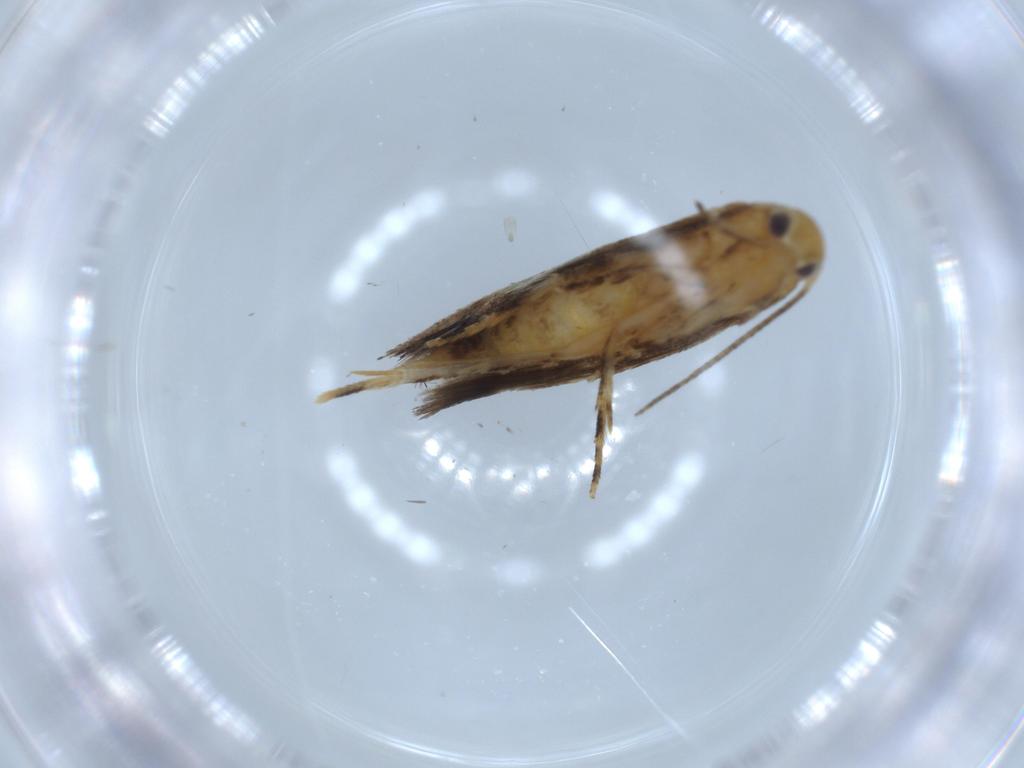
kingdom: Animalia
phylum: Arthropoda
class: Insecta
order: Lepidoptera
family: Momphidae
